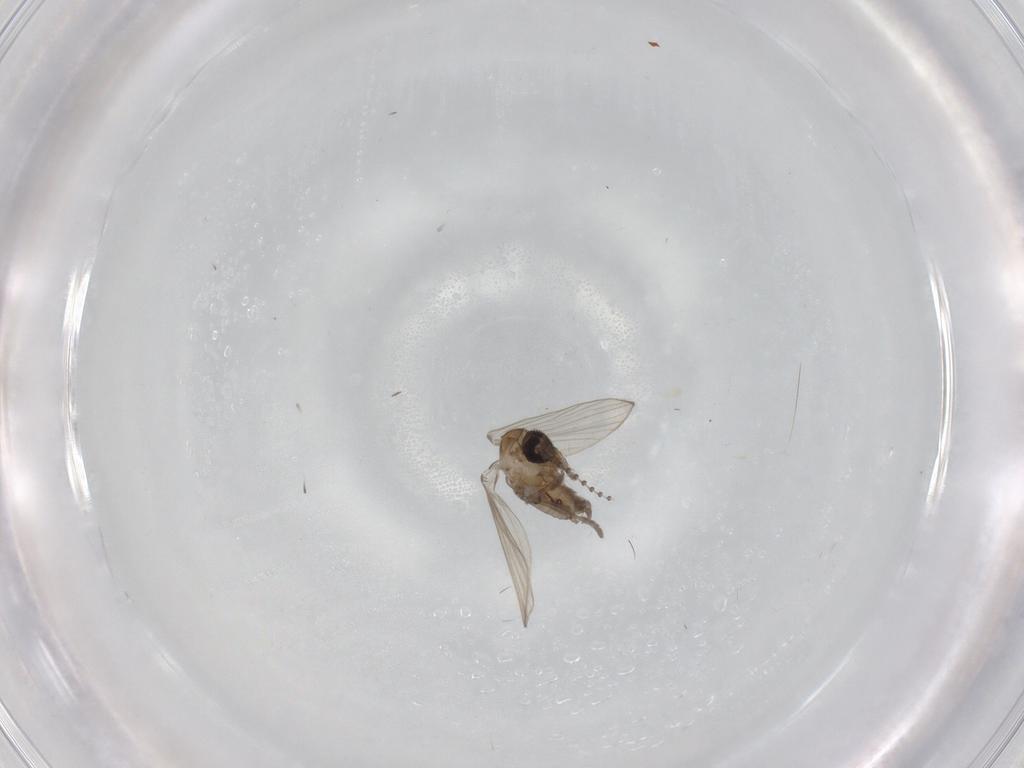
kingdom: Animalia
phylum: Arthropoda
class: Insecta
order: Diptera
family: Psychodidae
